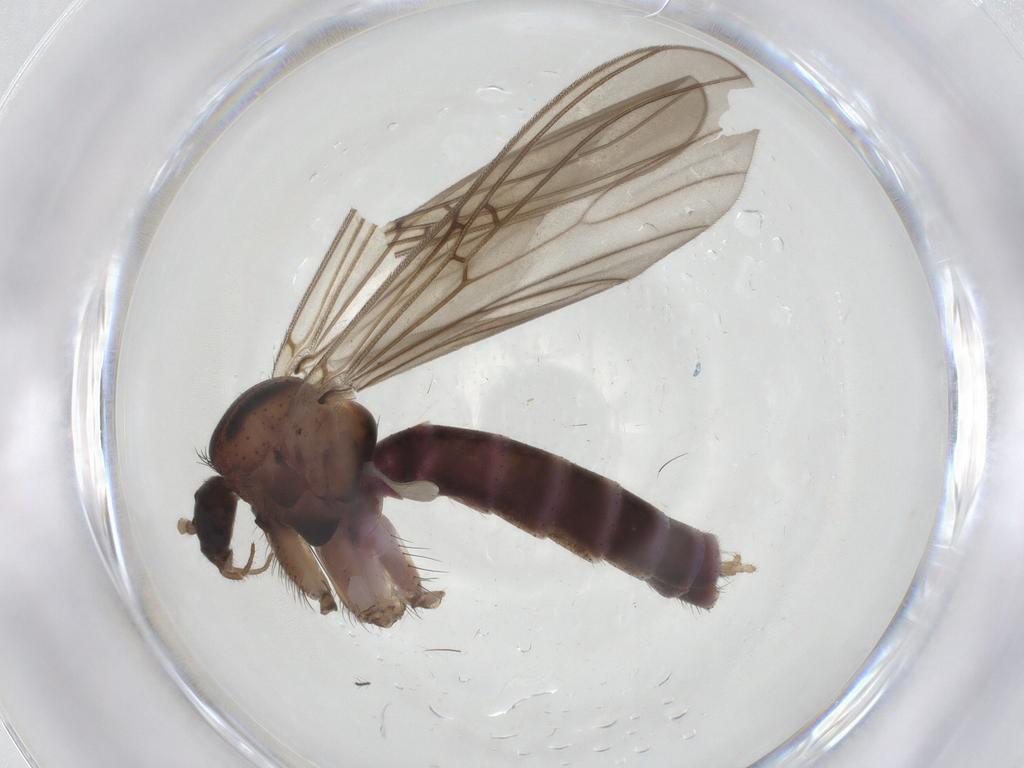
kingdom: Animalia
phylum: Arthropoda
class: Insecta
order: Diptera
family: Mycetophilidae
